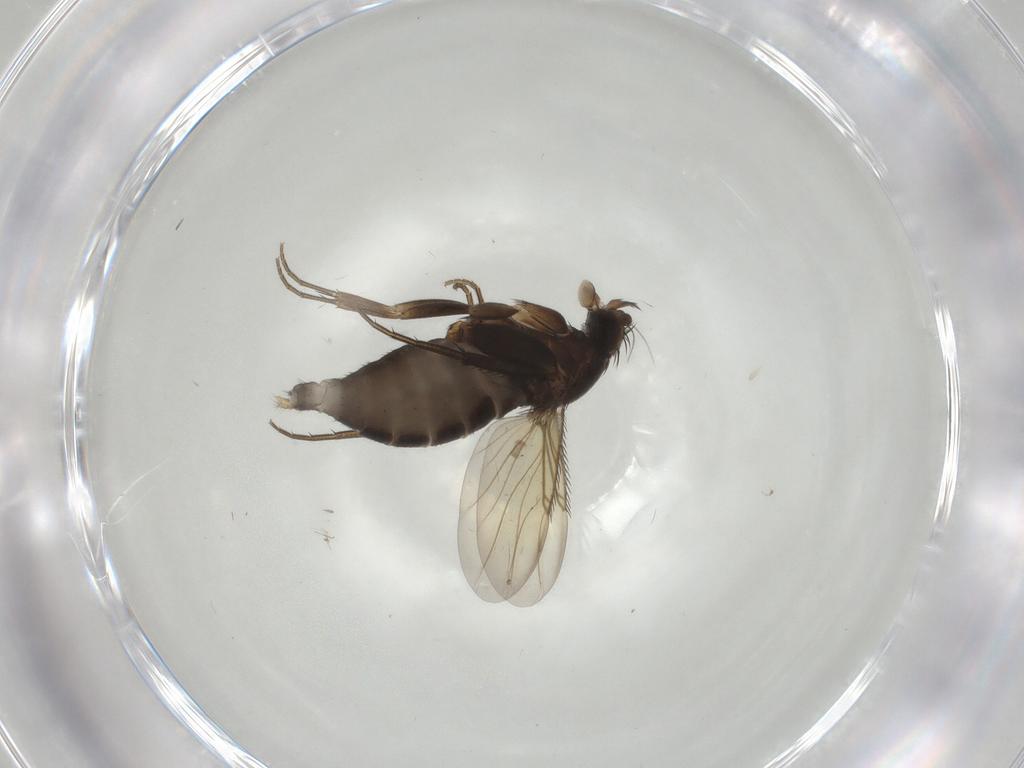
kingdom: Animalia
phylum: Arthropoda
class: Insecta
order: Diptera
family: Phoridae
